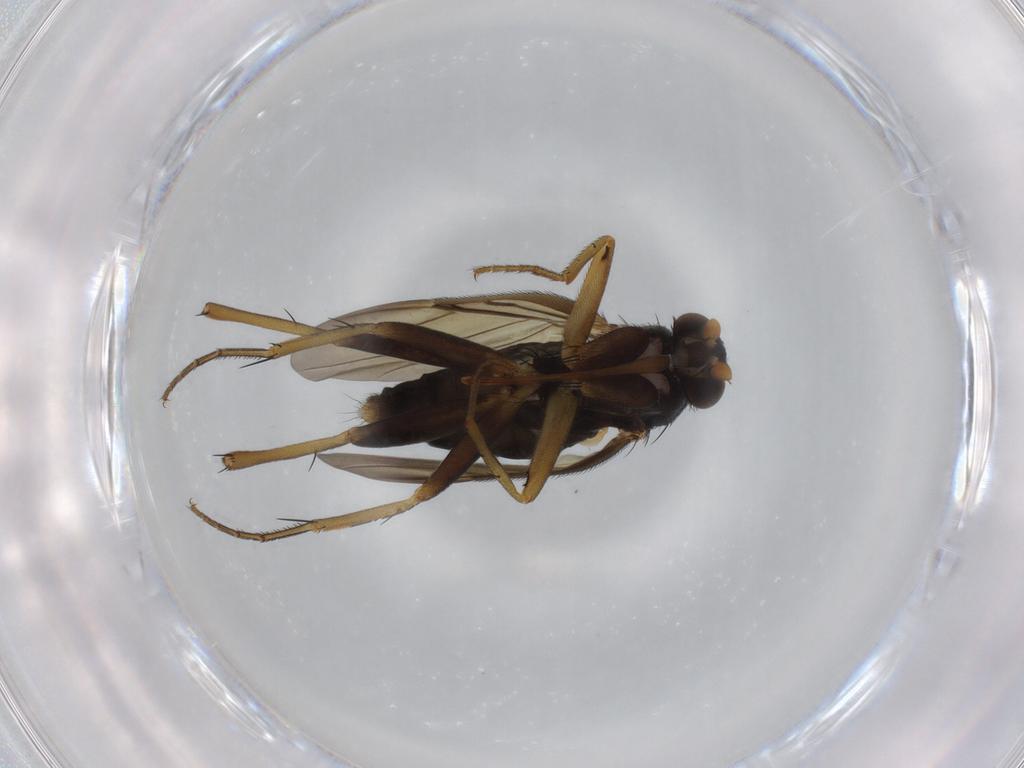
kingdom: Animalia
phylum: Arthropoda
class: Insecta
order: Diptera
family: Phoridae
